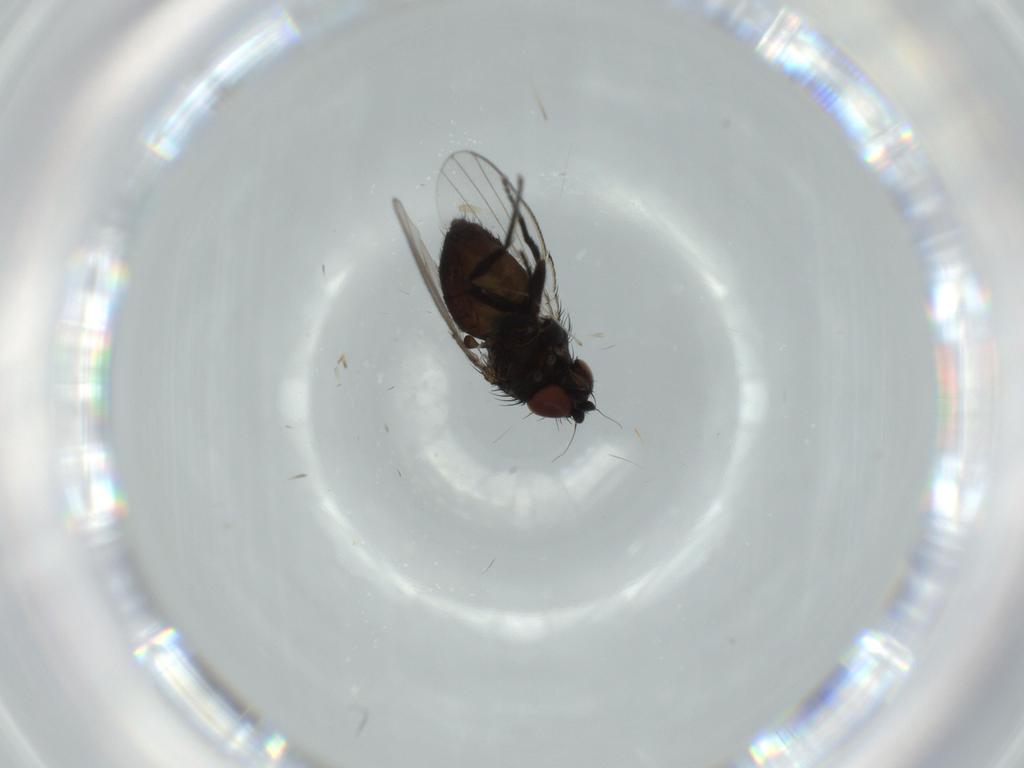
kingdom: Animalia
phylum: Arthropoda
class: Insecta
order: Diptera
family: Milichiidae
